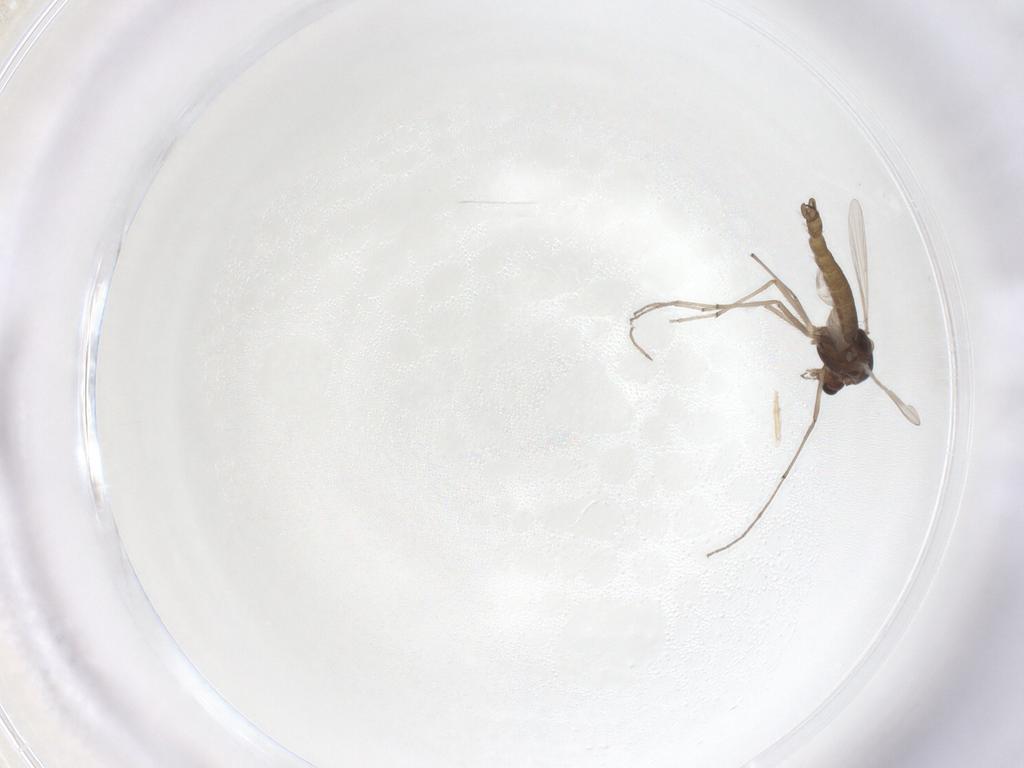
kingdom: Animalia
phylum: Arthropoda
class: Insecta
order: Diptera
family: Chironomidae
